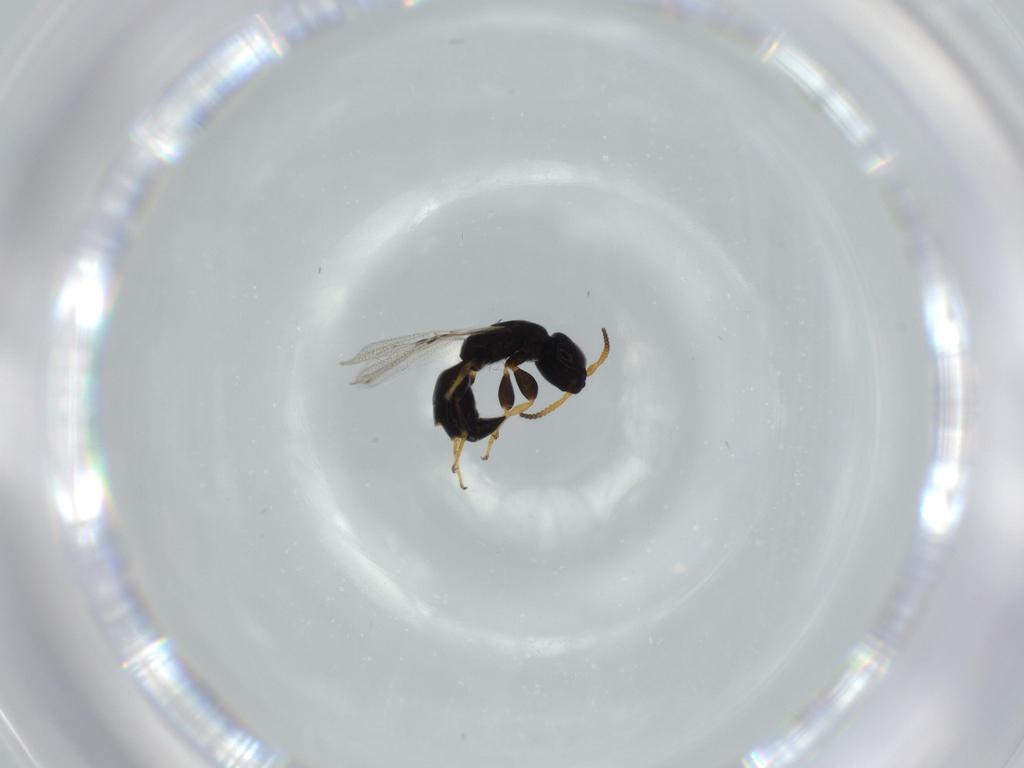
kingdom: Animalia
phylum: Arthropoda
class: Insecta
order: Hymenoptera
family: Bethylidae
